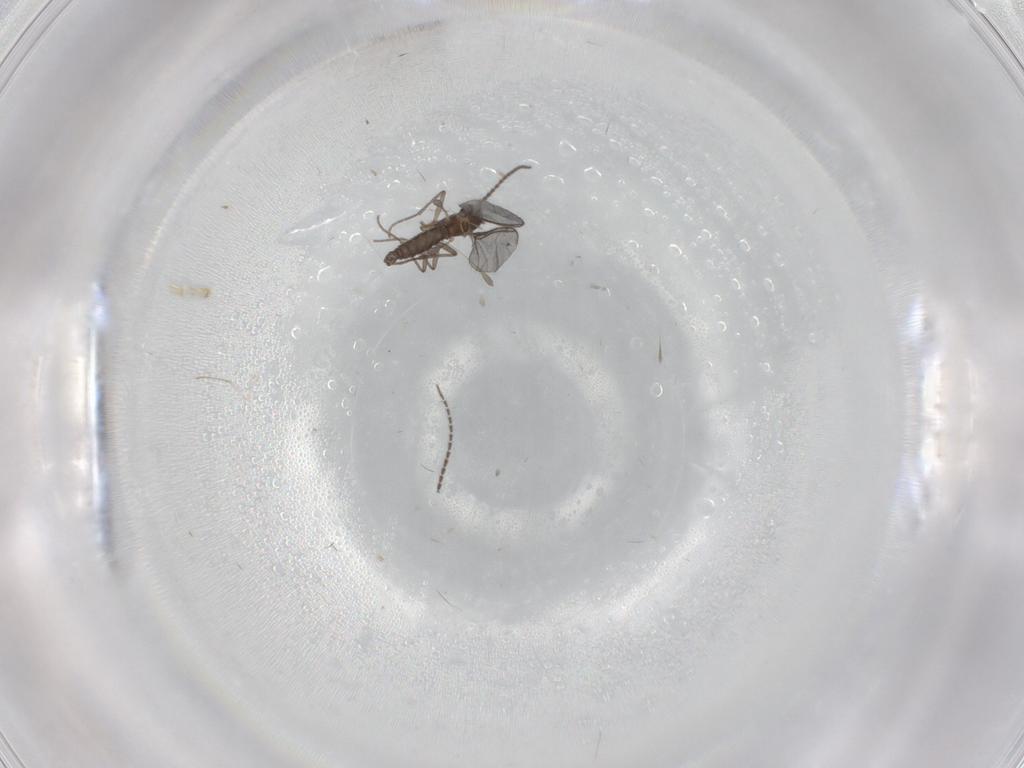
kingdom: Animalia
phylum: Arthropoda
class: Insecta
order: Diptera
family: Sciaridae
